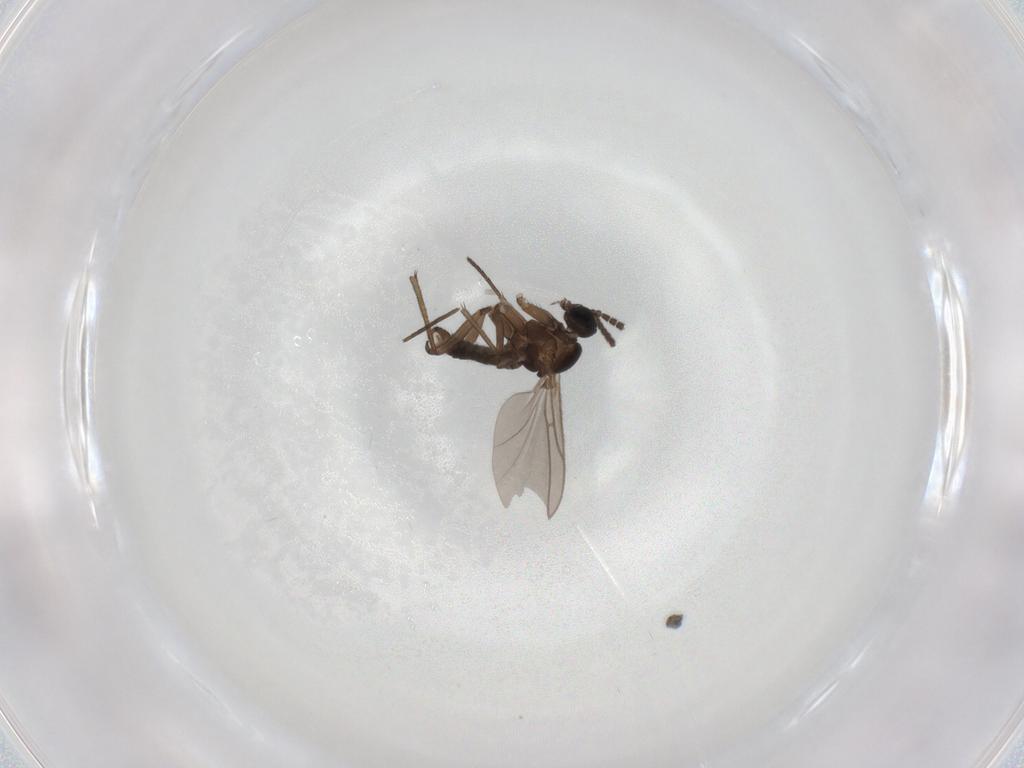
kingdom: Animalia
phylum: Arthropoda
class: Insecta
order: Diptera
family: Sciaridae
